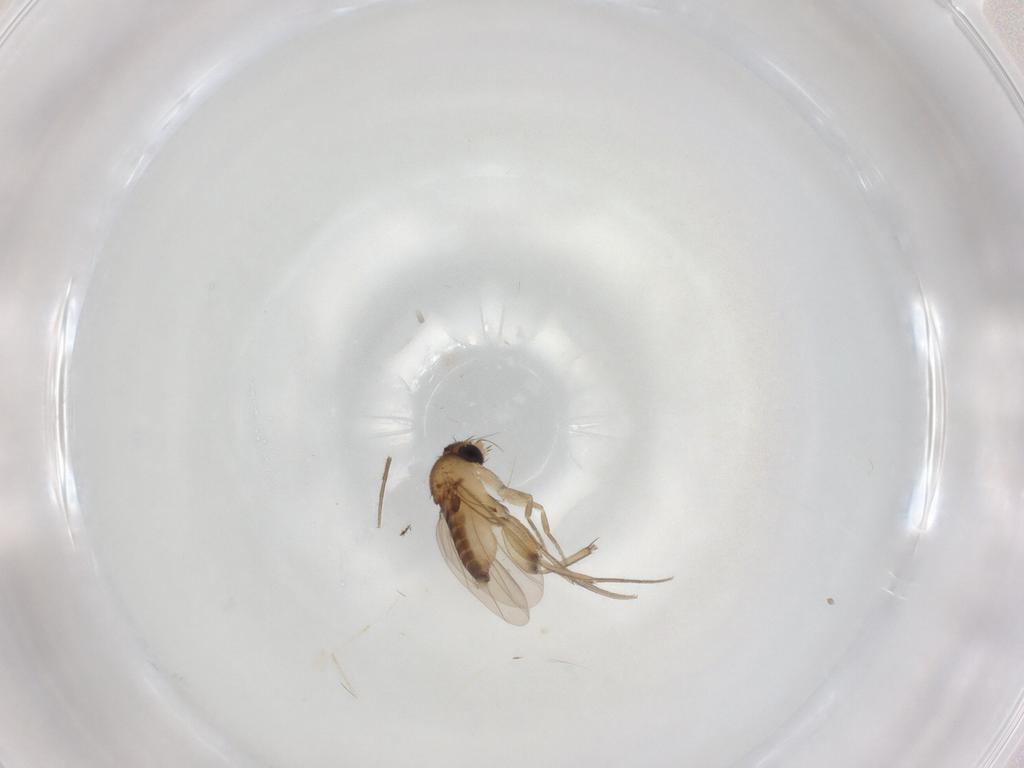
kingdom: Animalia
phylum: Arthropoda
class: Insecta
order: Diptera
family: Phoridae
